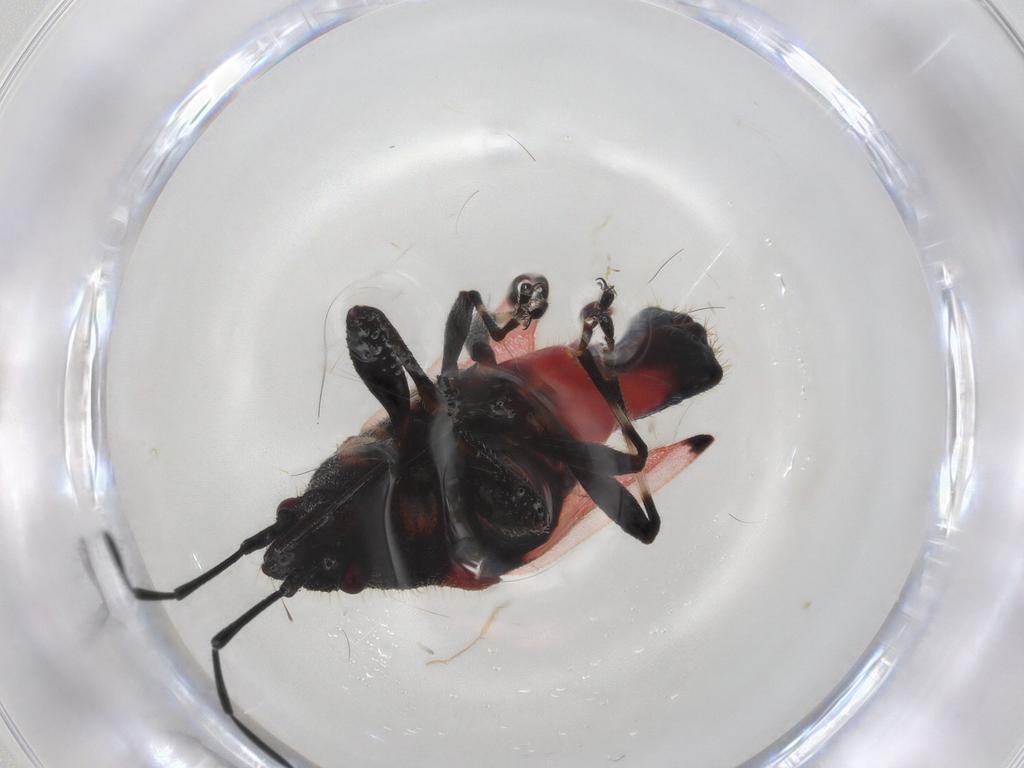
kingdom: Animalia
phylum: Arthropoda
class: Insecta
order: Hemiptera
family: Oxycarenidae
